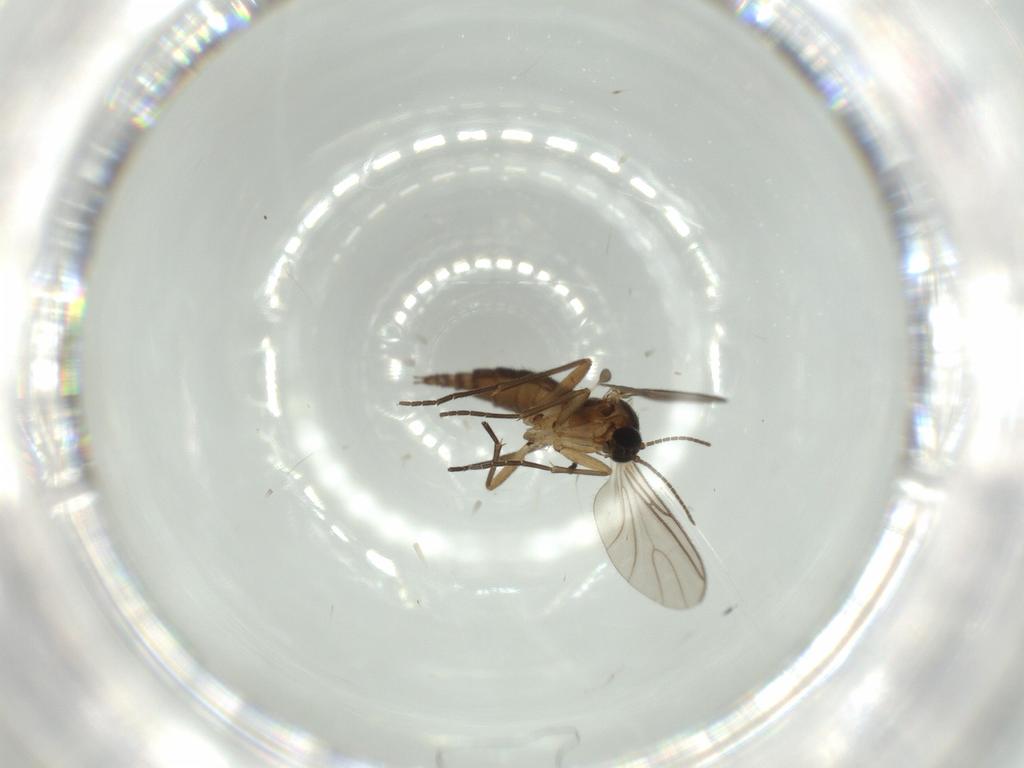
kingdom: Animalia
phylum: Arthropoda
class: Insecta
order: Diptera
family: Sciaridae
